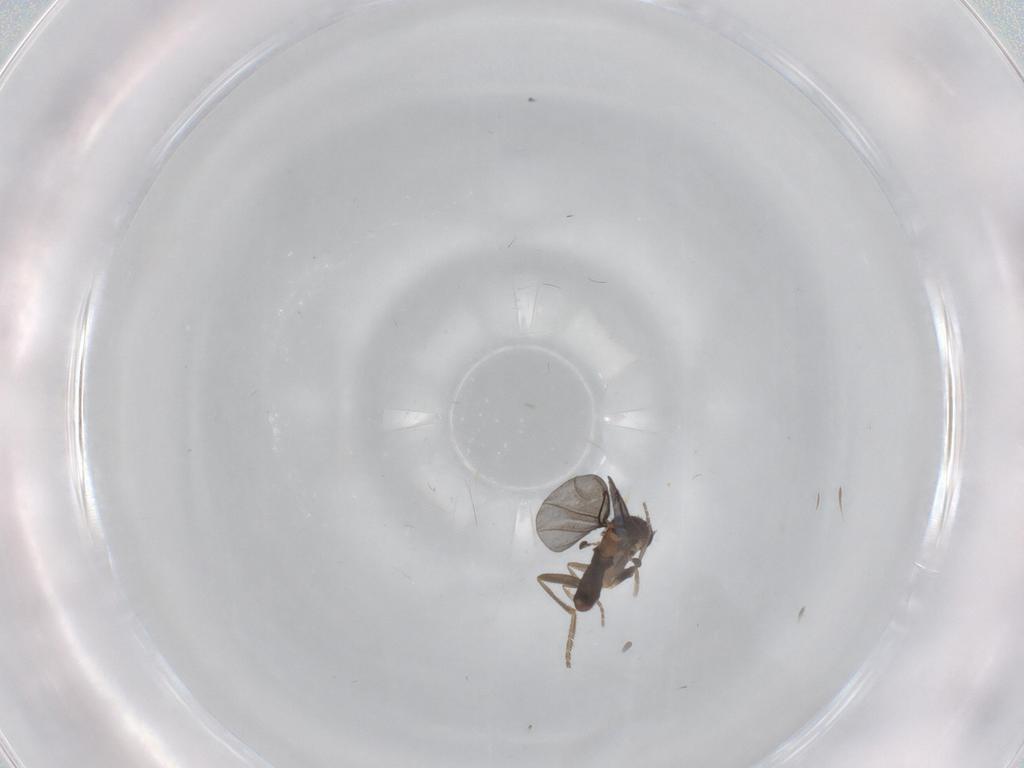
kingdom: Animalia
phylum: Arthropoda
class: Insecta
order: Diptera
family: Phoridae
